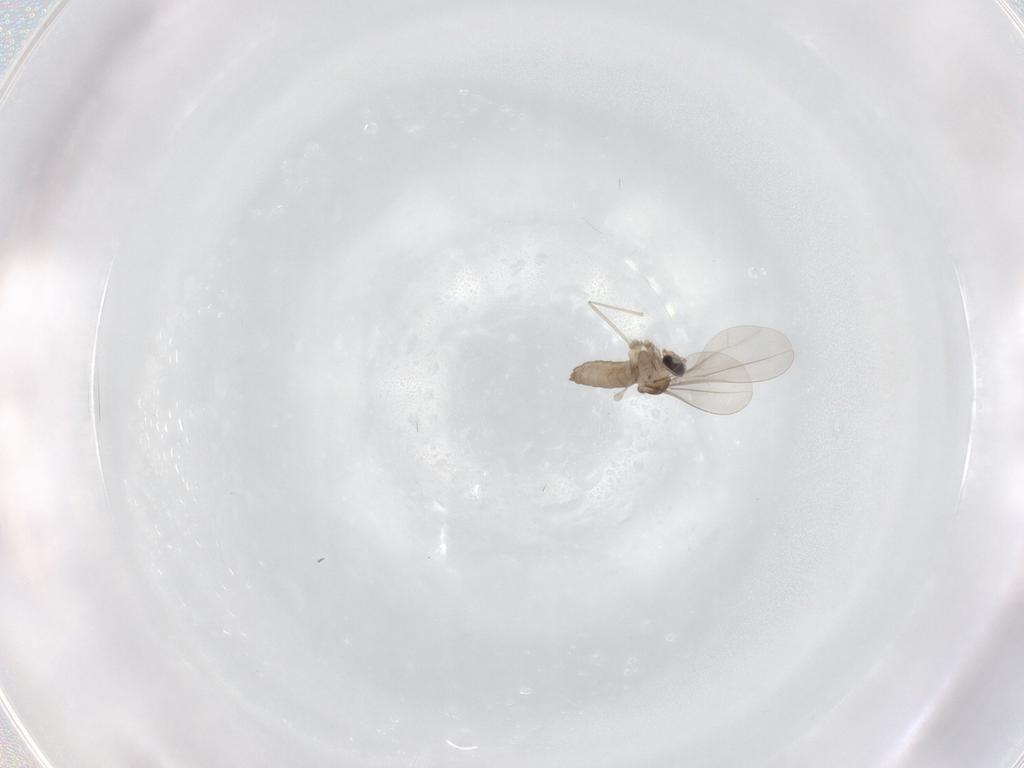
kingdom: Animalia
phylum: Arthropoda
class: Insecta
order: Diptera
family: Cecidomyiidae
